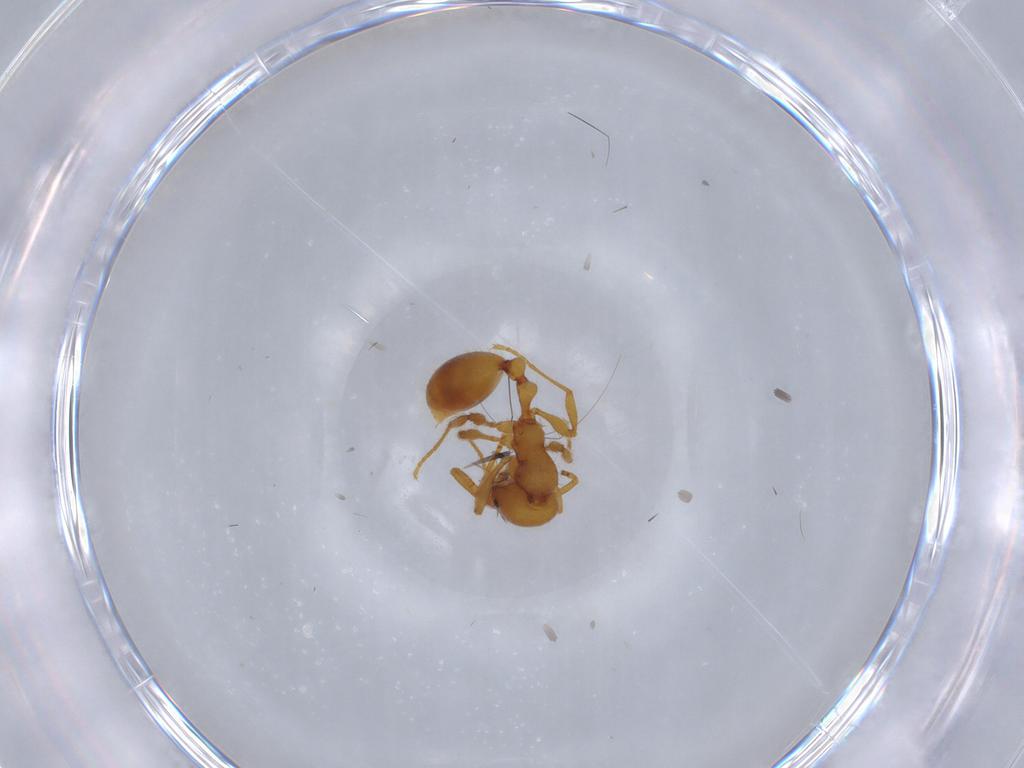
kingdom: Animalia
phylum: Arthropoda
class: Insecta
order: Hymenoptera
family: Formicidae
